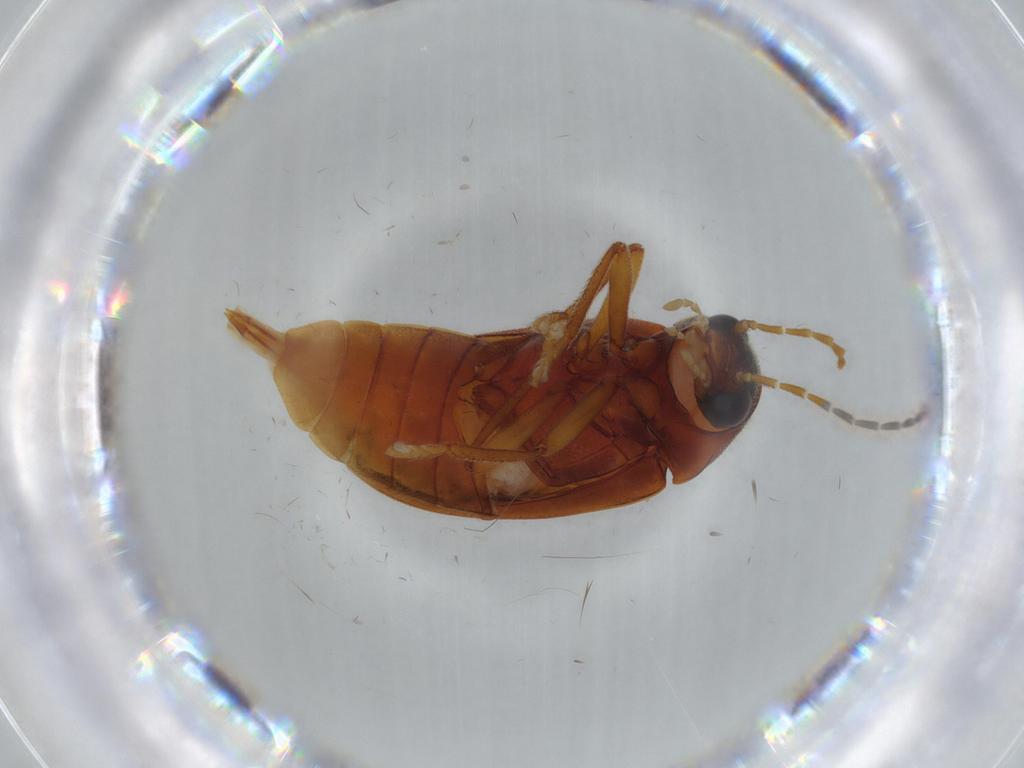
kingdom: Animalia
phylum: Arthropoda
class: Insecta
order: Coleoptera
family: Ptilodactylidae
